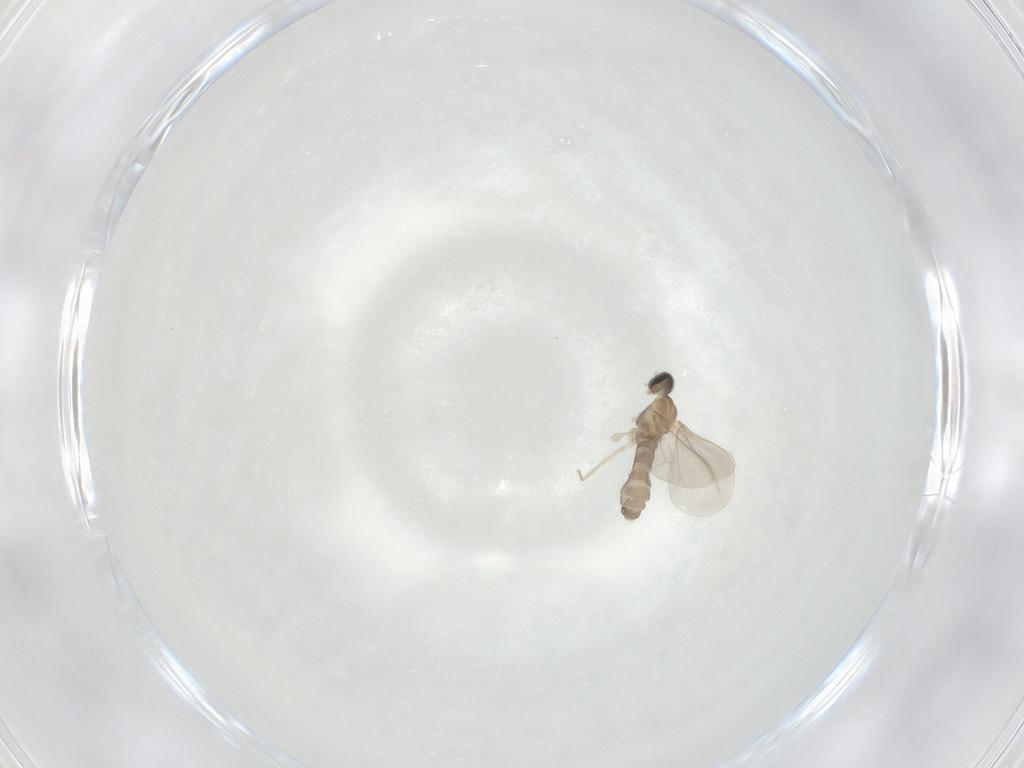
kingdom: Animalia
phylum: Arthropoda
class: Insecta
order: Diptera
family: Cecidomyiidae
